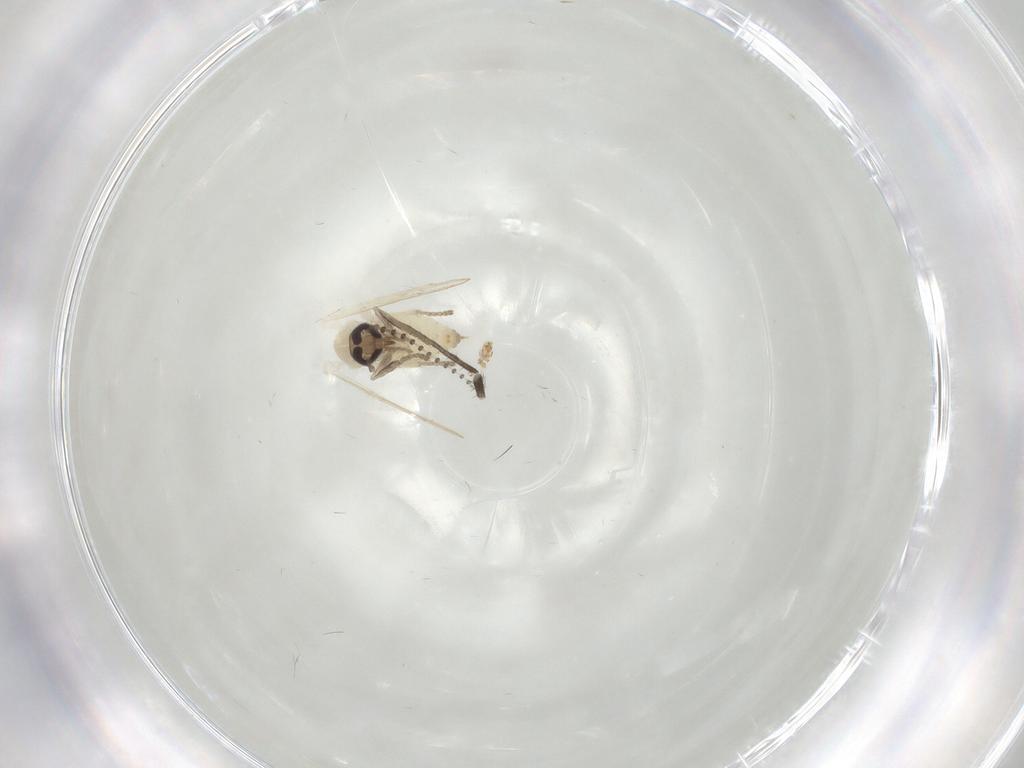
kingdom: Animalia
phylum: Arthropoda
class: Insecta
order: Diptera
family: Psychodidae
